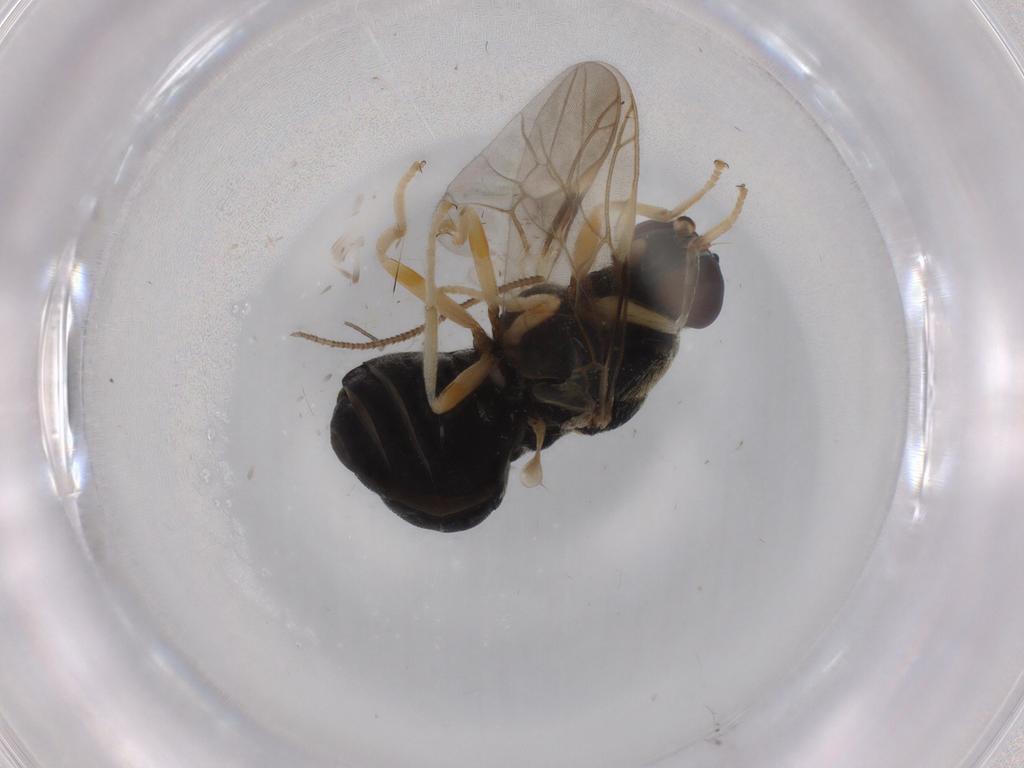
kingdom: Animalia
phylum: Arthropoda
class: Insecta
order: Diptera
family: Stratiomyidae
